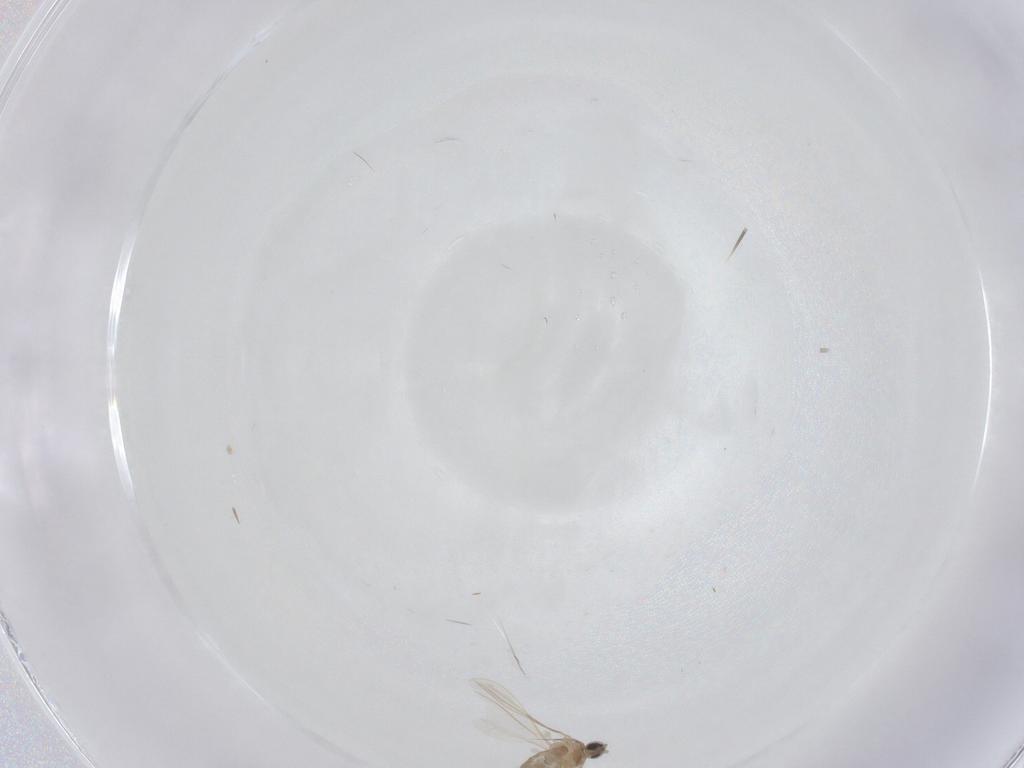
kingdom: Animalia
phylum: Arthropoda
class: Insecta
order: Diptera
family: Cecidomyiidae
